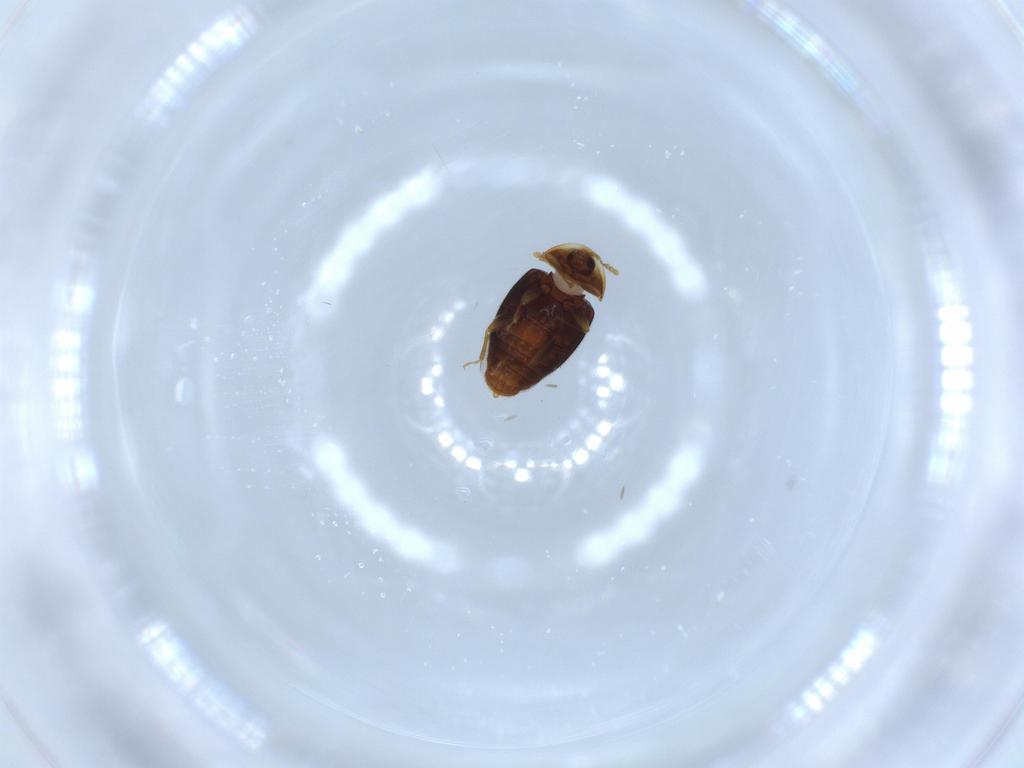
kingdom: Animalia
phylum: Arthropoda
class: Insecta
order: Coleoptera
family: Corylophidae
